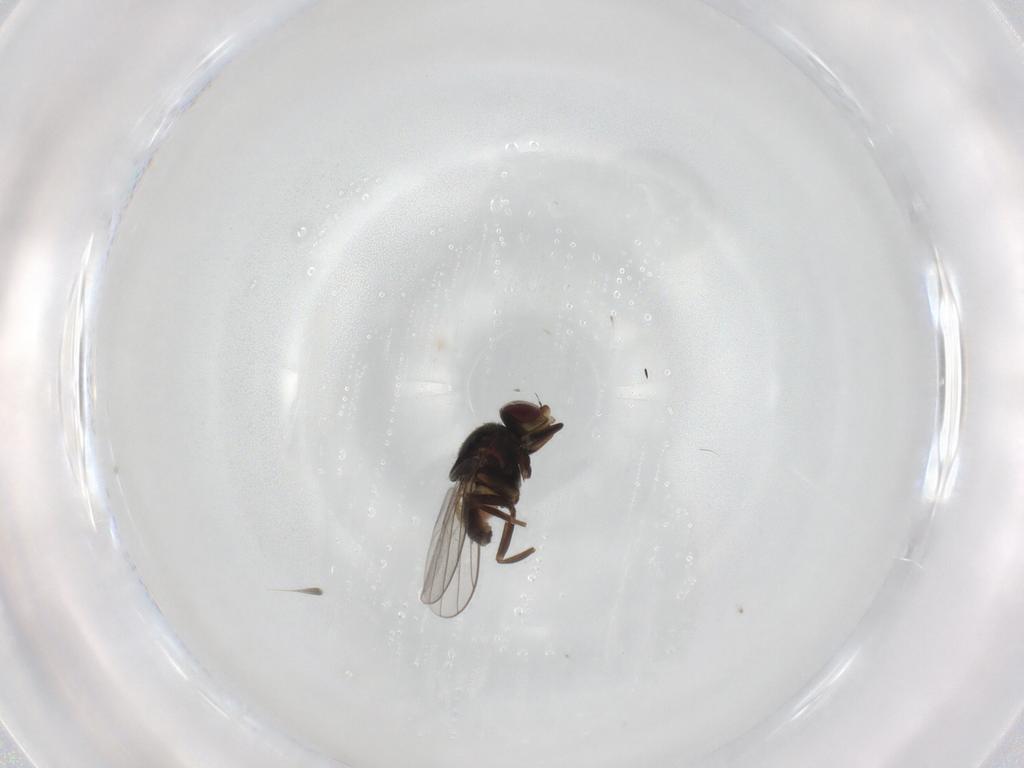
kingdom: Animalia
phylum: Arthropoda
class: Insecta
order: Diptera
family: Chloropidae
